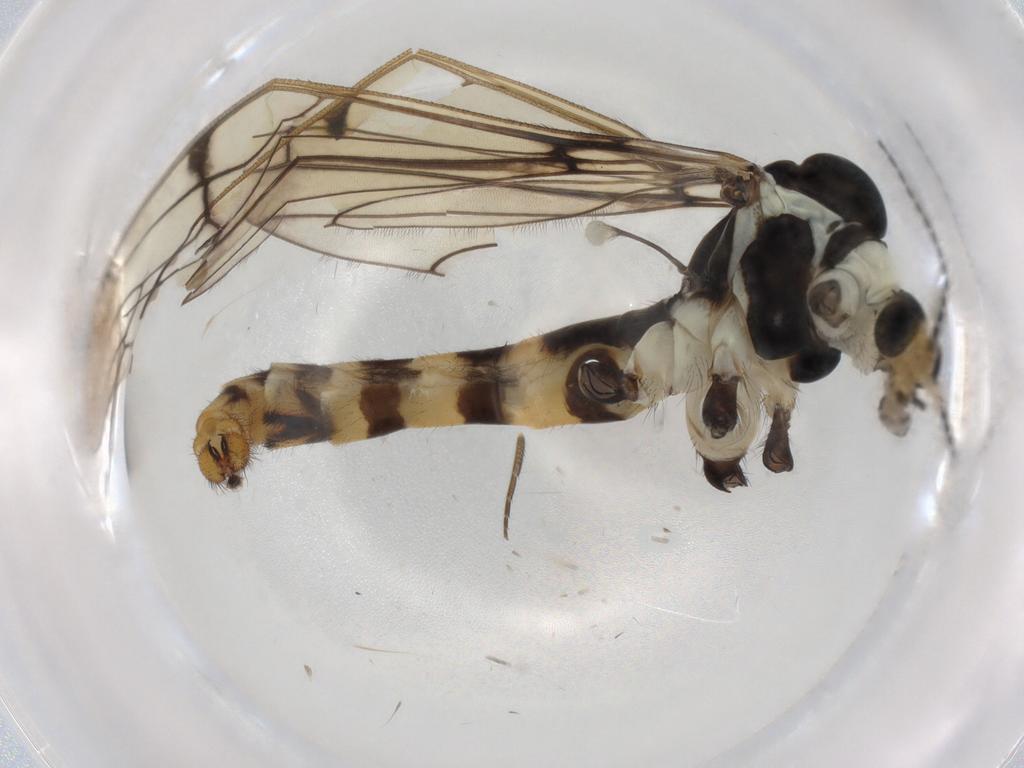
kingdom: Animalia
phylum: Arthropoda
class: Insecta
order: Diptera
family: Limoniidae
